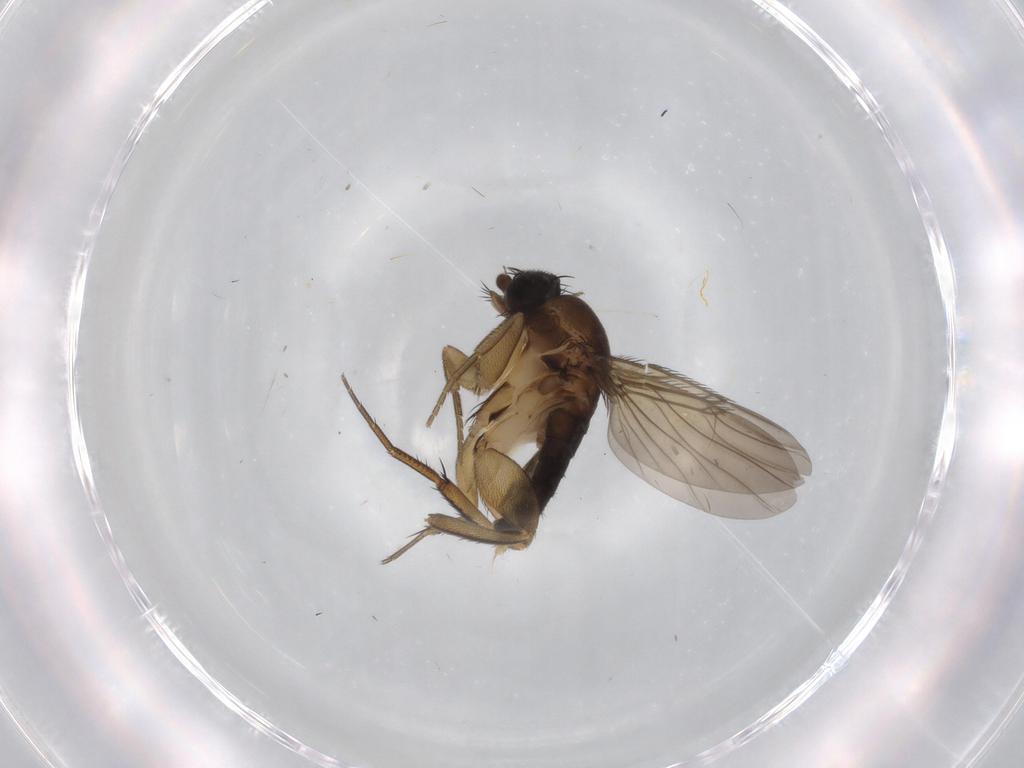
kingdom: Animalia
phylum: Arthropoda
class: Insecta
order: Diptera
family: Phoridae
